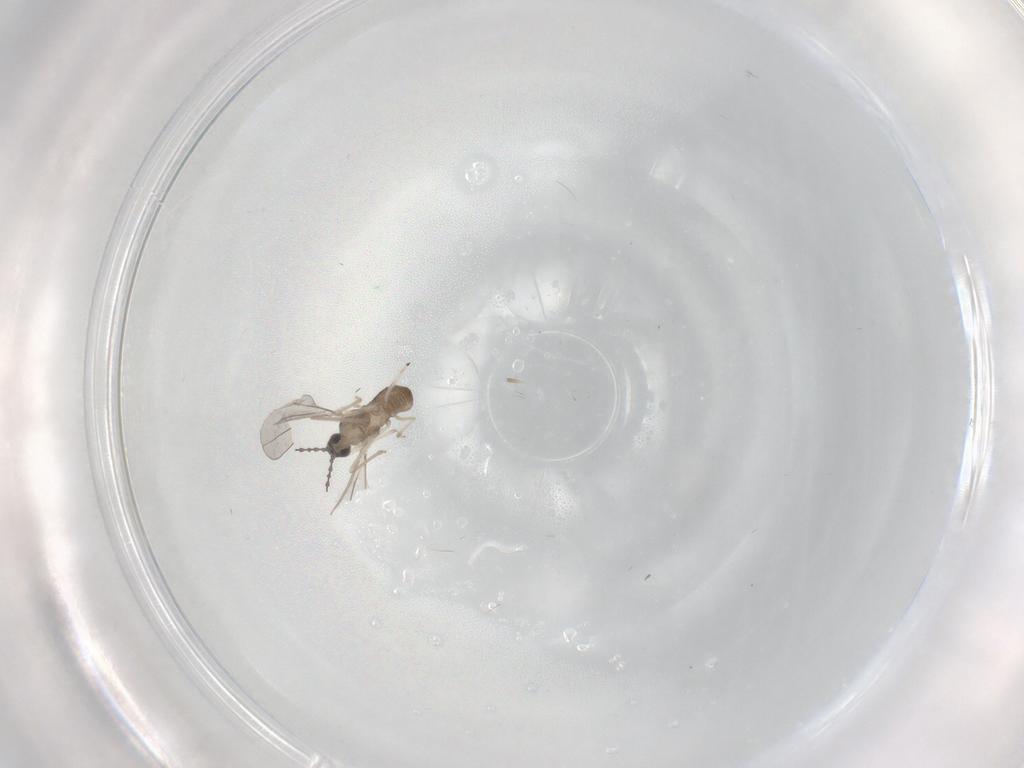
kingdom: Animalia
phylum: Arthropoda
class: Insecta
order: Diptera
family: Cecidomyiidae
